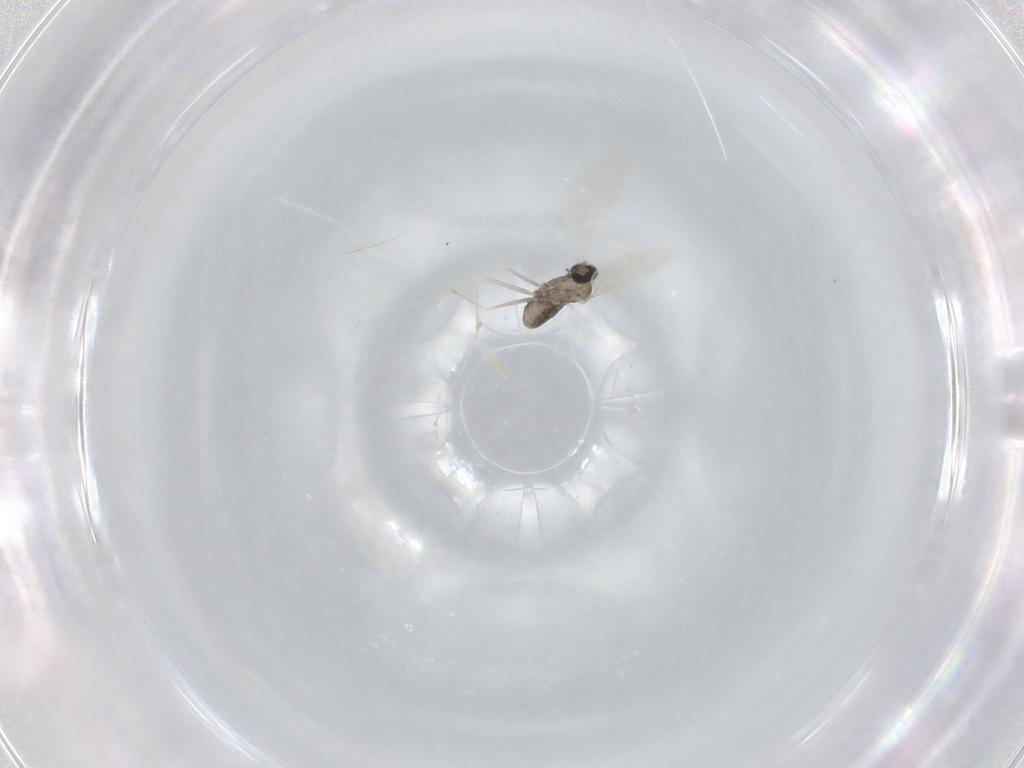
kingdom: Animalia
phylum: Arthropoda
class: Insecta
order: Diptera
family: Cecidomyiidae
